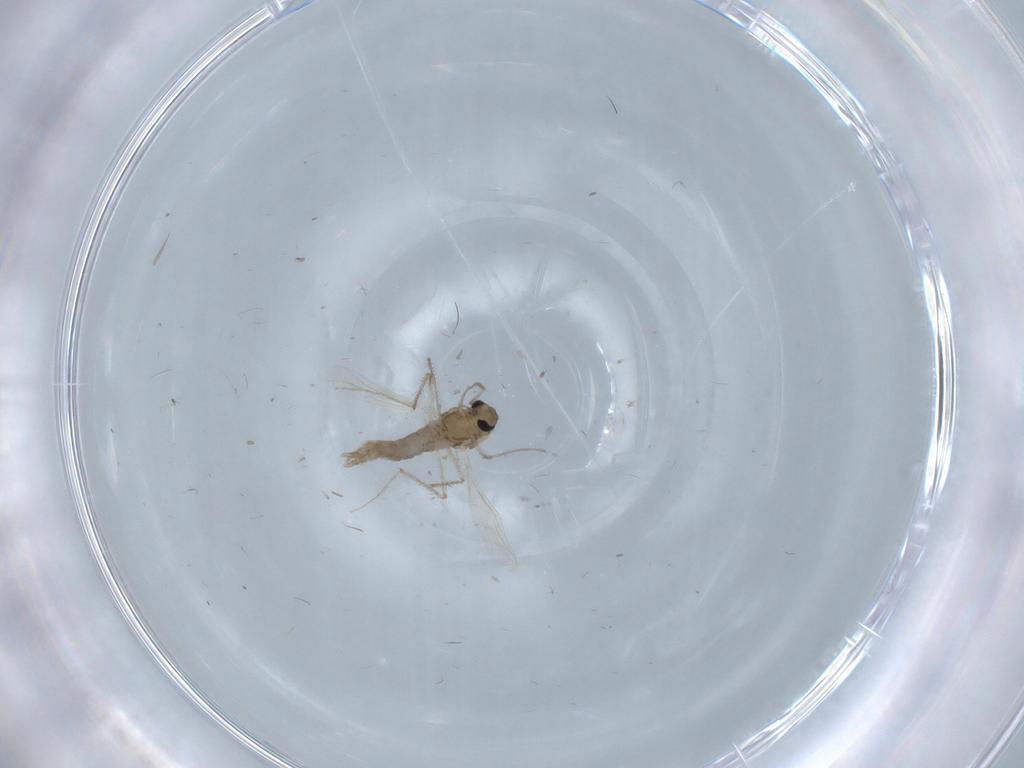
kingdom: Animalia
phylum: Arthropoda
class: Insecta
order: Diptera
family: Chironomidae
